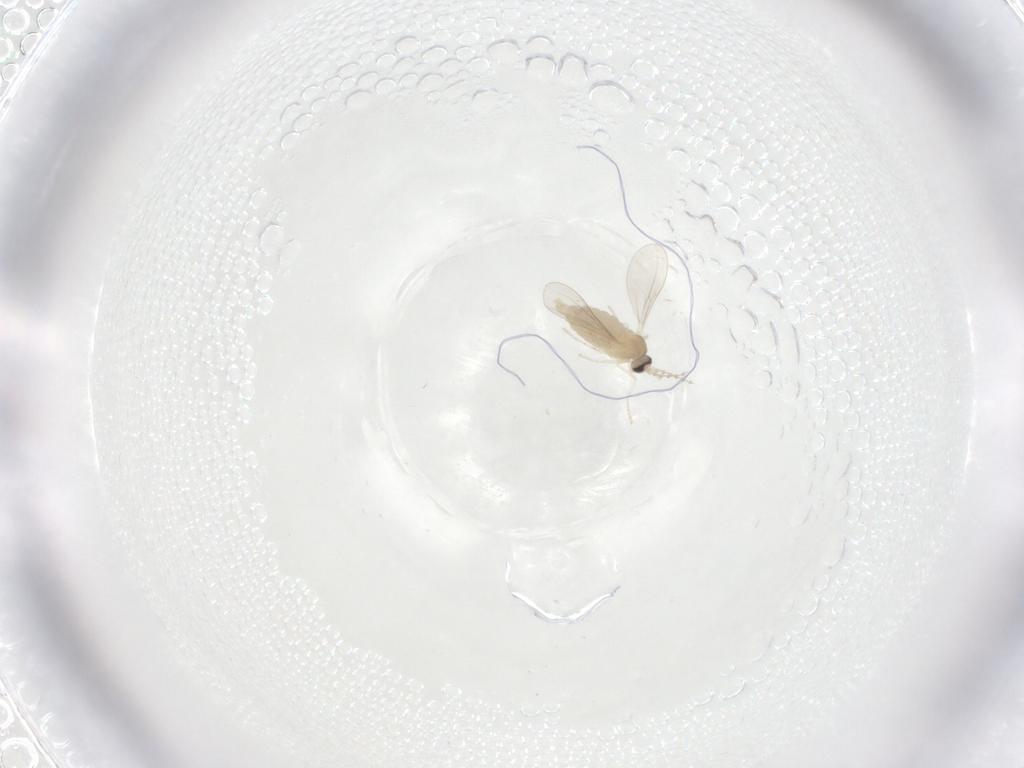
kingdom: Animalia
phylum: Arthropoda
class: Insecta
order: Diptera
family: Cecidomyiidae
